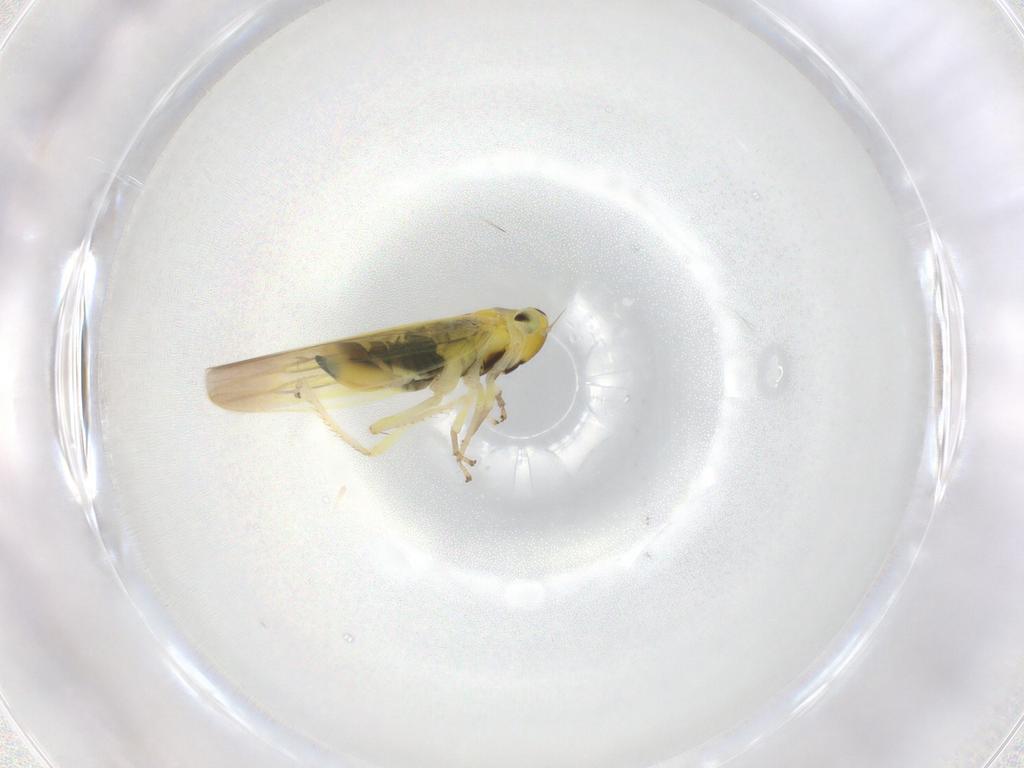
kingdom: Animalia
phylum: Arthropoda
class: Insecta
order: Hemiptera
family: Cicadellidae
